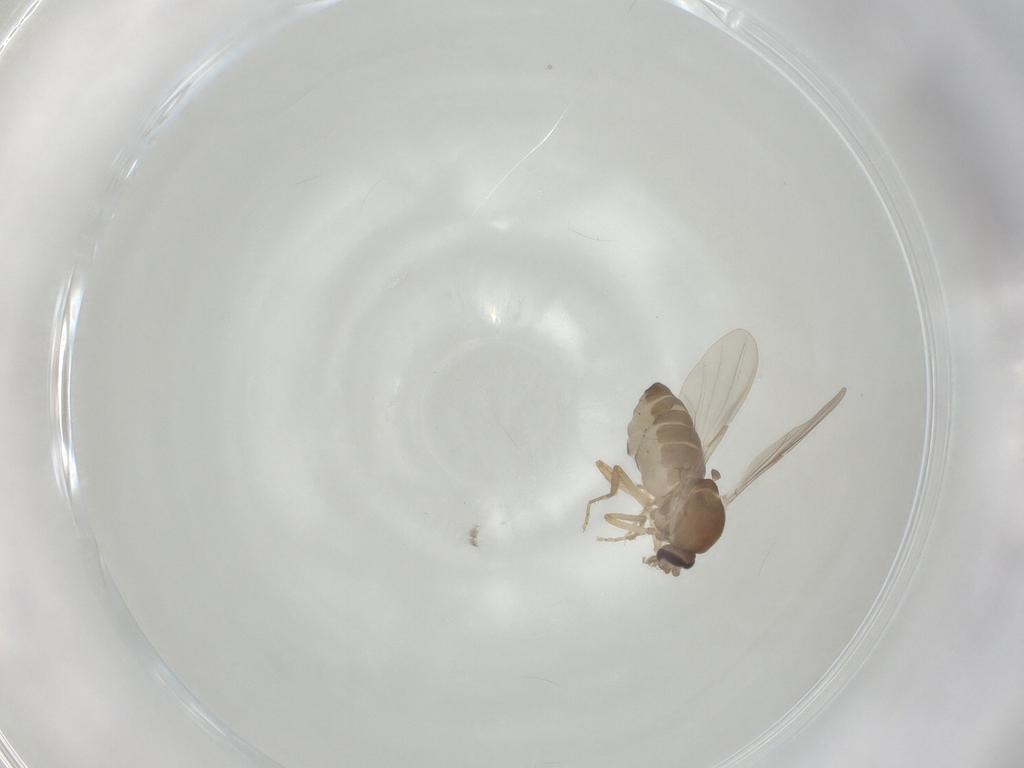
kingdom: Animalia
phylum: Arthropoda
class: Insecta
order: Diptera
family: Ceratopogonidae
